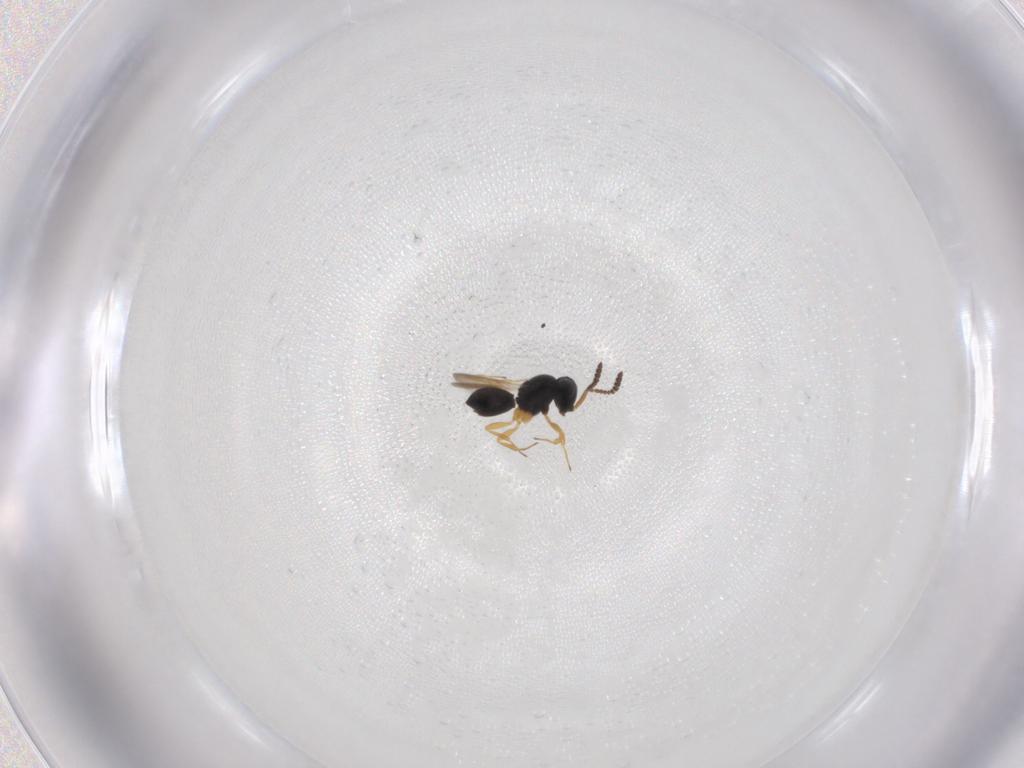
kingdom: Animalia
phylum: Arthropoda
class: Insecta
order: Hymenoptera
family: Scelionidae
